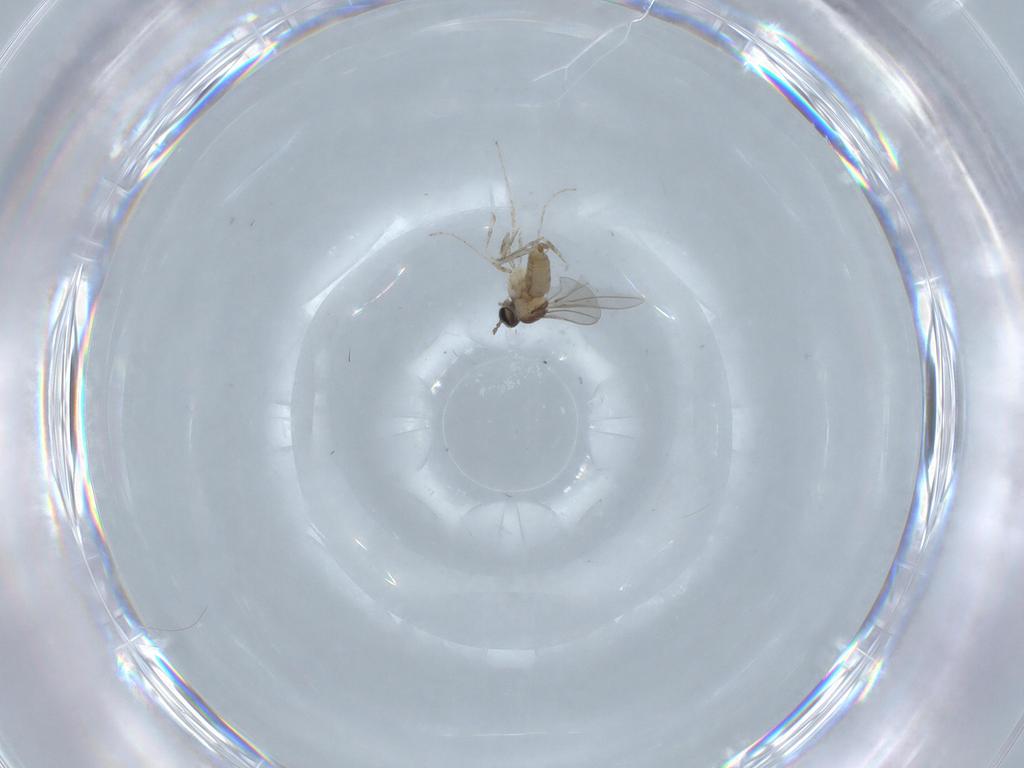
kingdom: Animalia
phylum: Arthropoda
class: Insecta
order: Diptera
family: Cecidomyiidae
